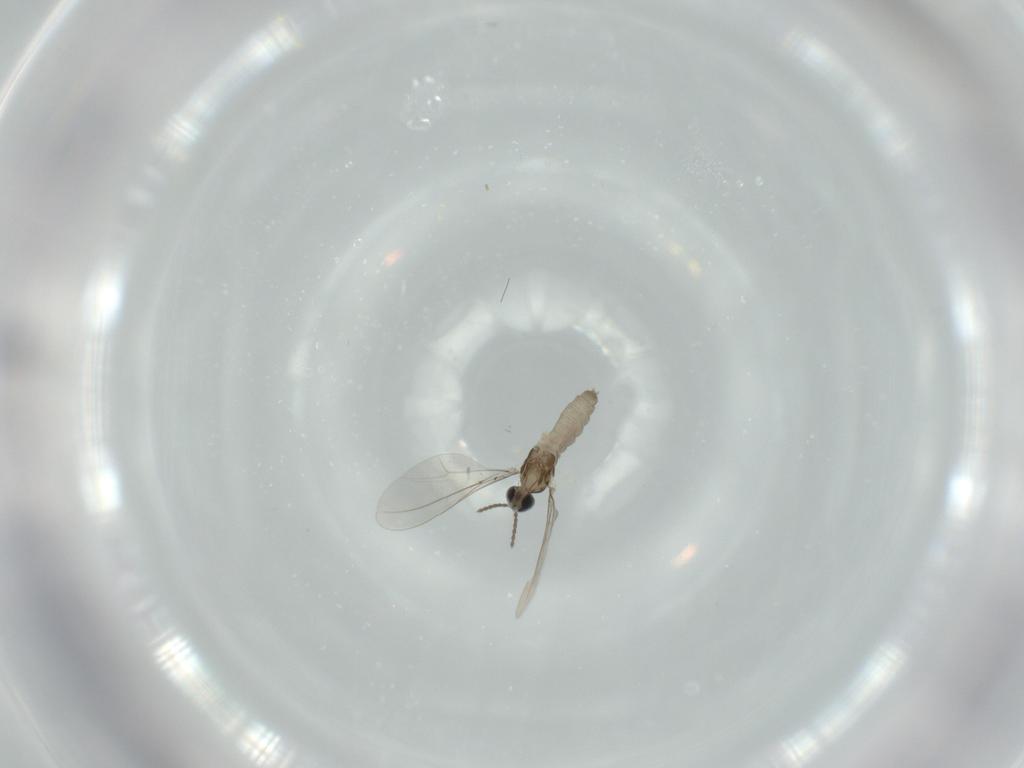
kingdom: Animalia
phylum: Arthropoda
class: Insecta
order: Diptera
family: Cecidomyiidae
